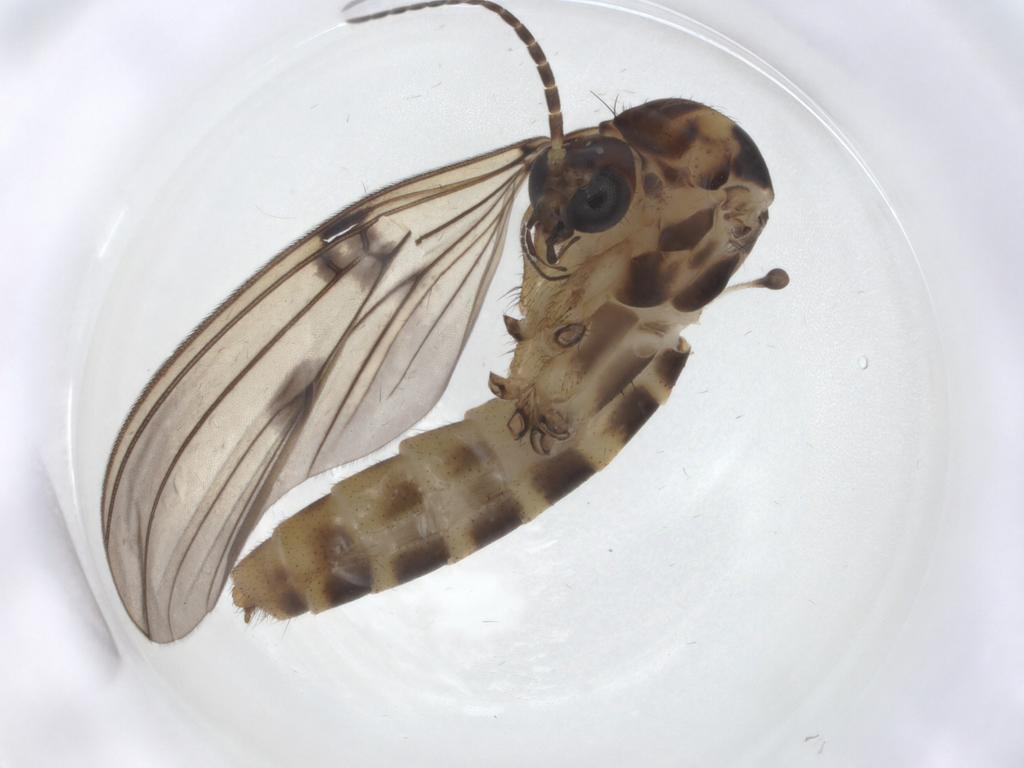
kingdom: Animalia
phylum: Arthropoda
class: Insecta
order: Diptera
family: Mycetophilidae
